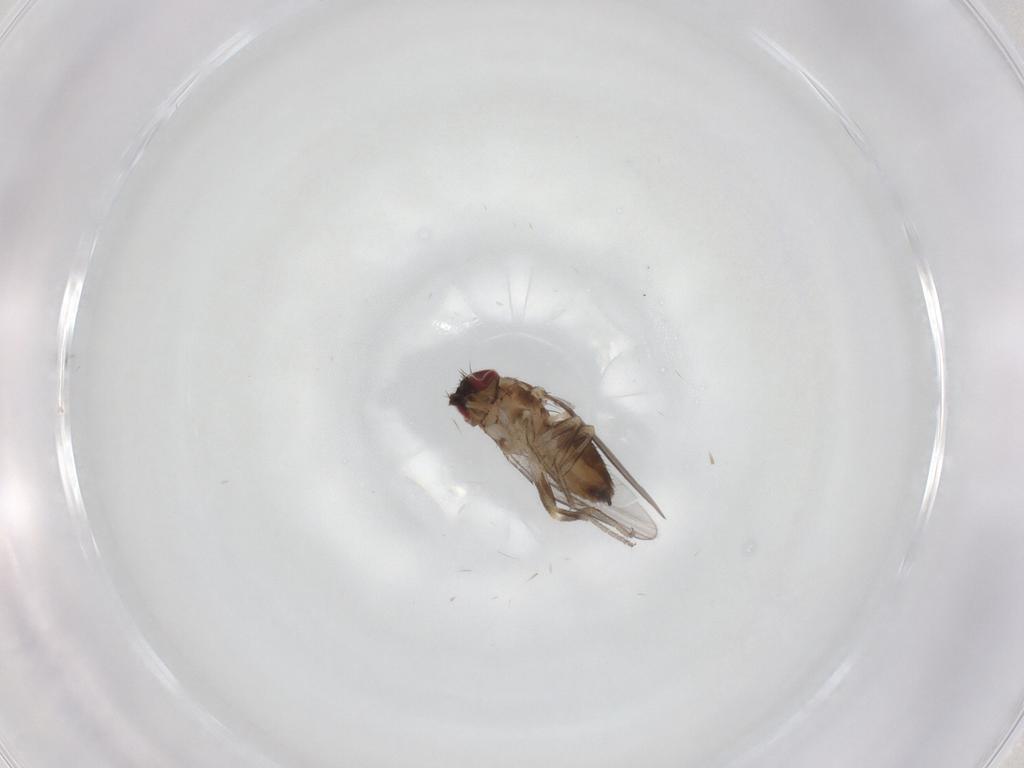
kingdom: Animalia
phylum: Arthropoda
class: Insecta
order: Diptera
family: Milichiidae
